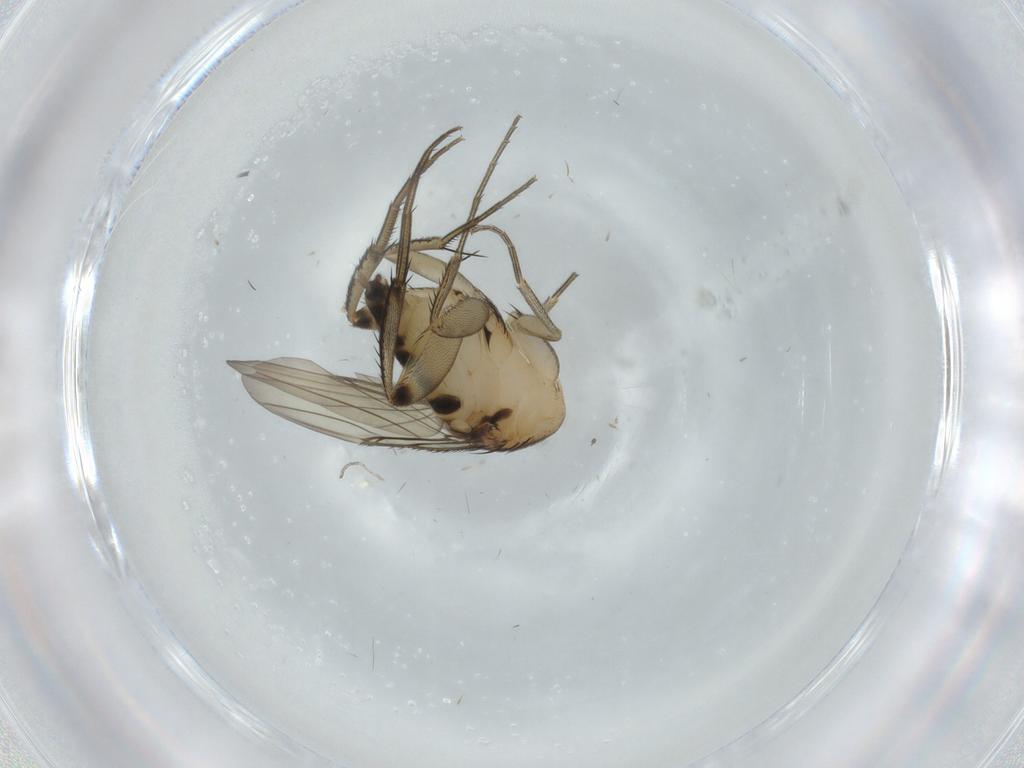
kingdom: Animalia
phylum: Arthropoda
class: Insecta
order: Diptera
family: Phoridae
